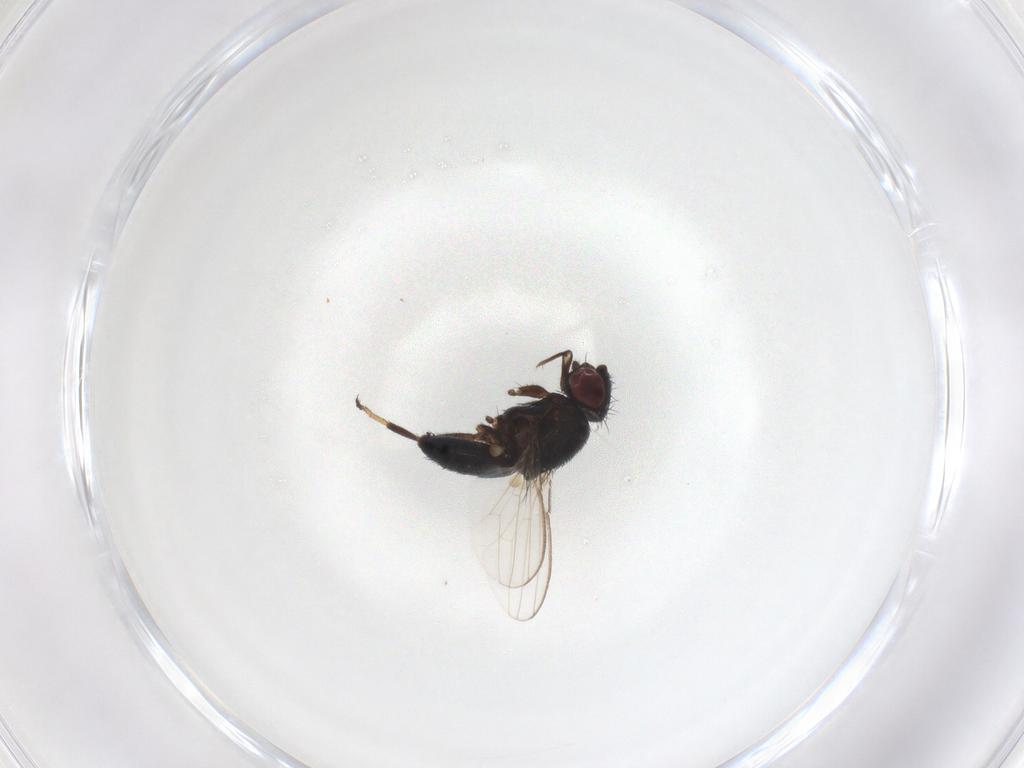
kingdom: Animalia
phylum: Arthropoda
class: Insecta
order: Diptera
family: Milichiidae
